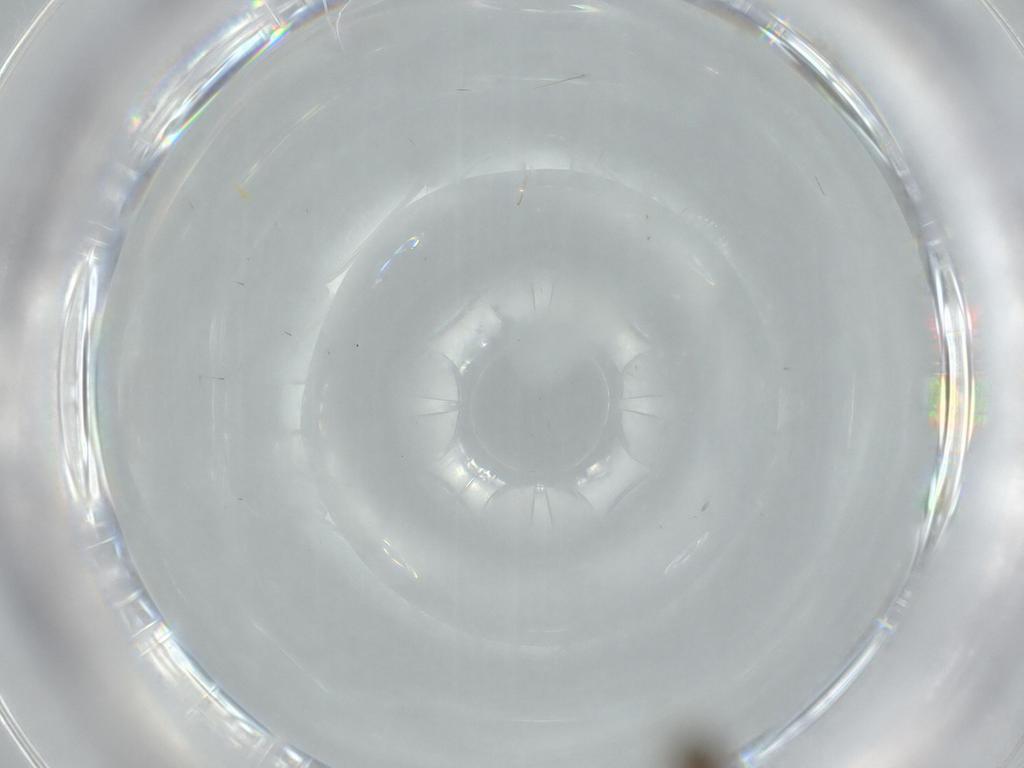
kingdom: Animalia
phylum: Arthropoda
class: Insecta
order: Diptera
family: Phoridae
